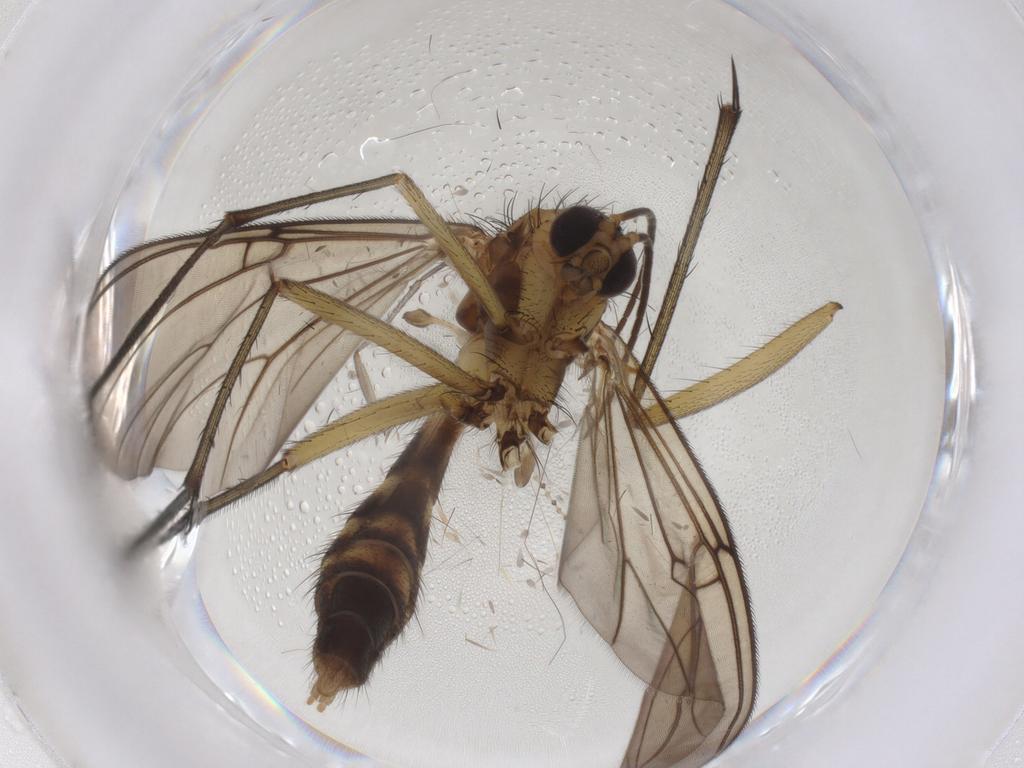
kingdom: Animalia
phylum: Arthropoda
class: Insecta
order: Diptera
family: Mycetophilidae
